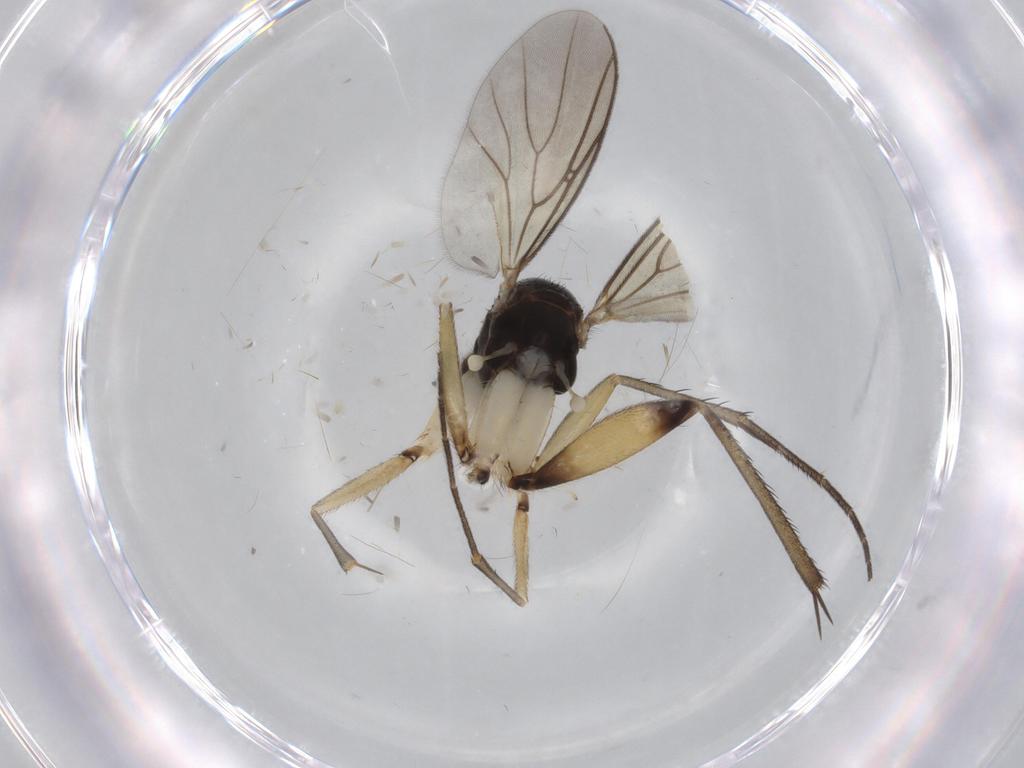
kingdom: Animalia
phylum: Arthropoda
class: Insecta
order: Diptera
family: Phoridae
